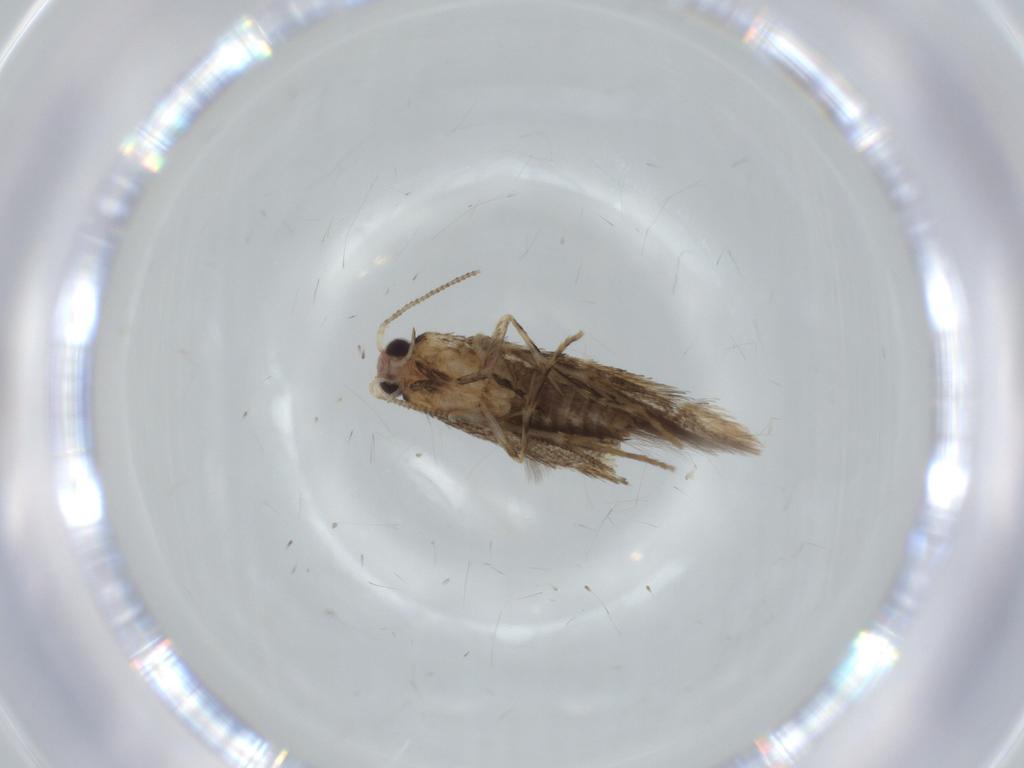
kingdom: Animalia
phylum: Arthropoda
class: Insecta
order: Lepidoptera
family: Tineidae
